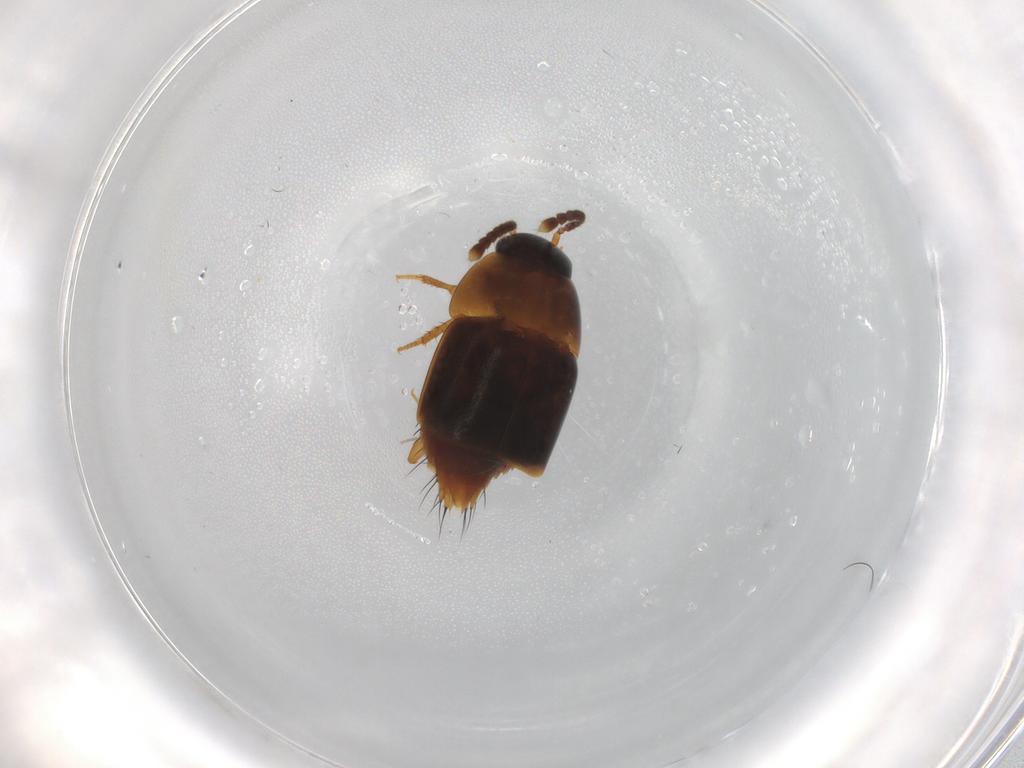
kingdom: Animalia
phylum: Arthropoda
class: Insecta
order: Coleoptera
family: Staphylinidae
